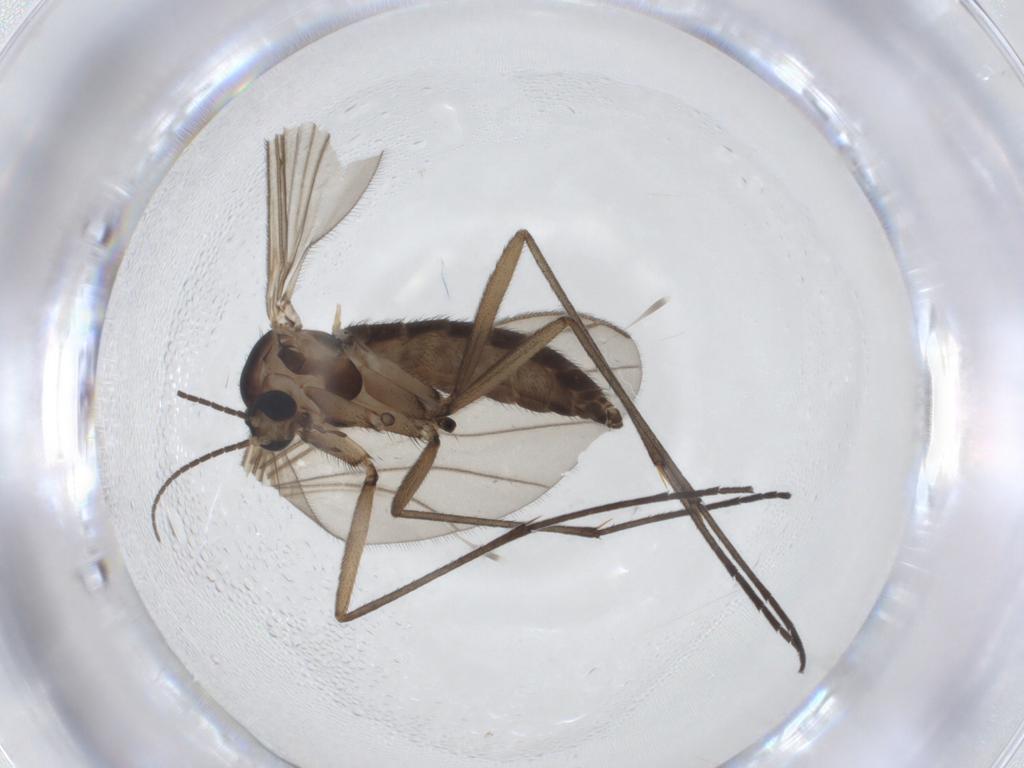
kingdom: Animalia
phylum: Arthropoda
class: Insecta
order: Diptera
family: Sciaridae
